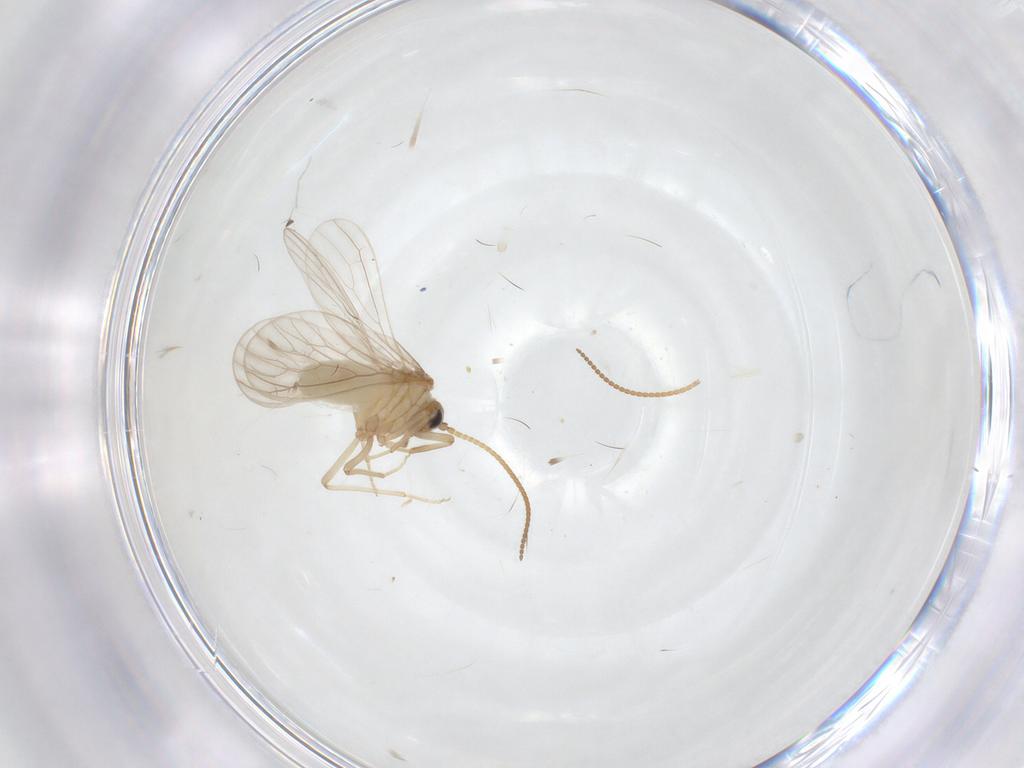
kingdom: Animalia
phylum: Arthropoda
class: Insecta
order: Neuroptera
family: Coniopterygidae
